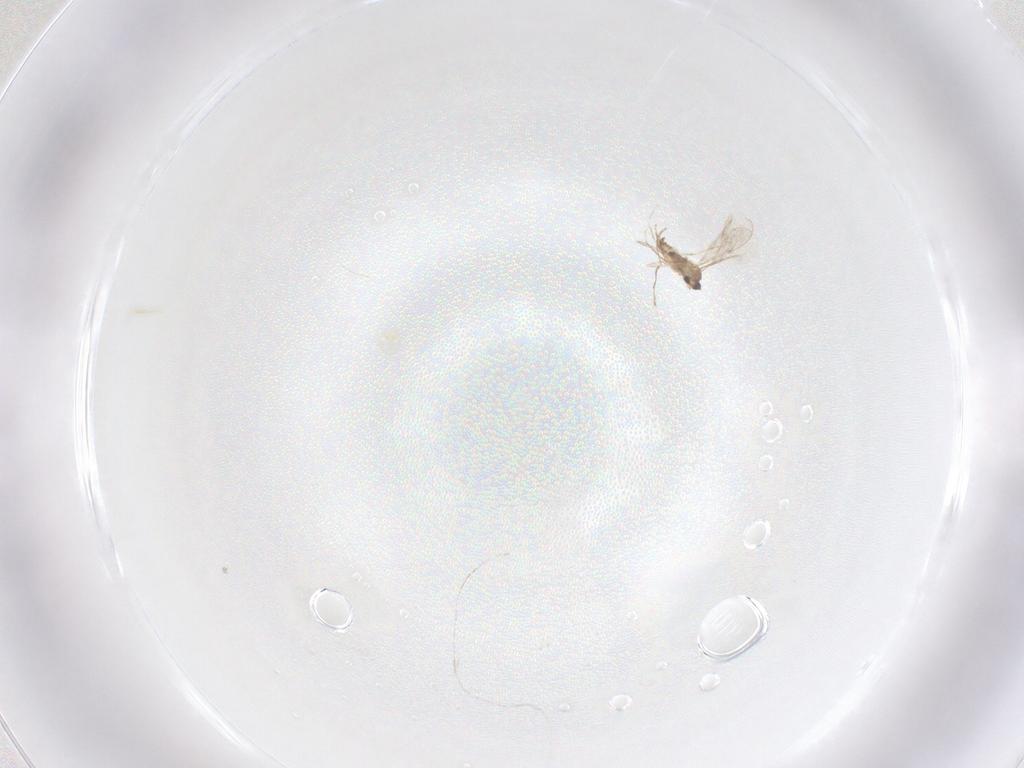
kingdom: Animalia
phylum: Arthropoda
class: Insecta
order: Diptera
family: Cecidomyiidae
